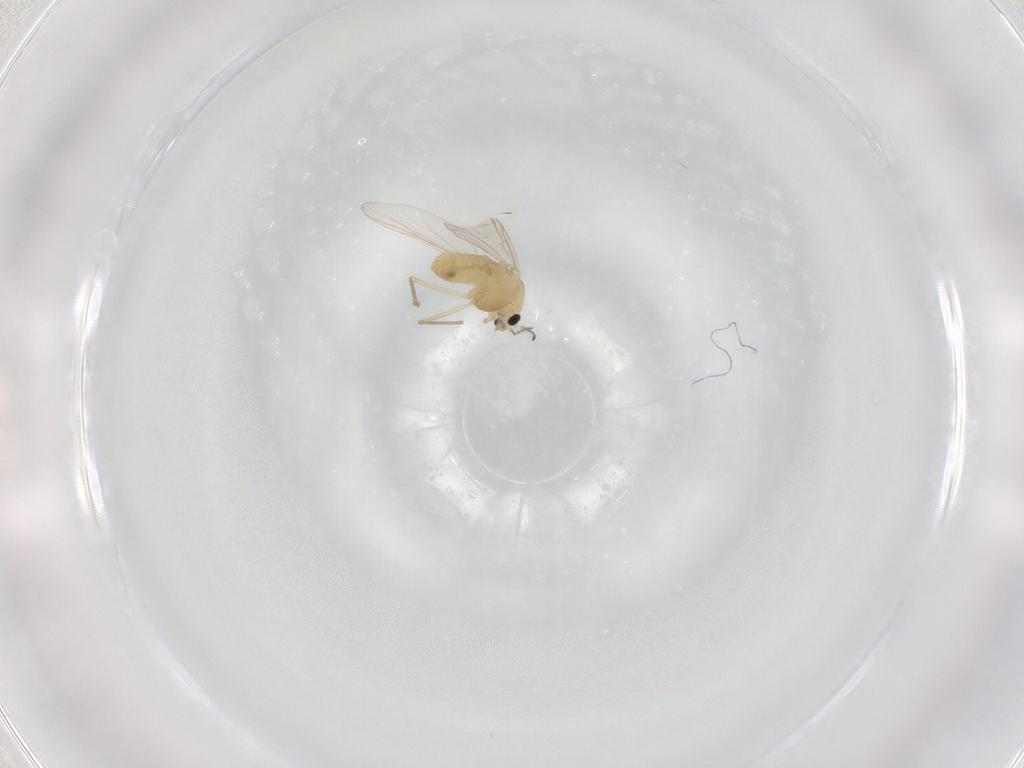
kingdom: Animalia
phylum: Arthropoda
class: Insecta
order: Diptera
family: Chironomidae
